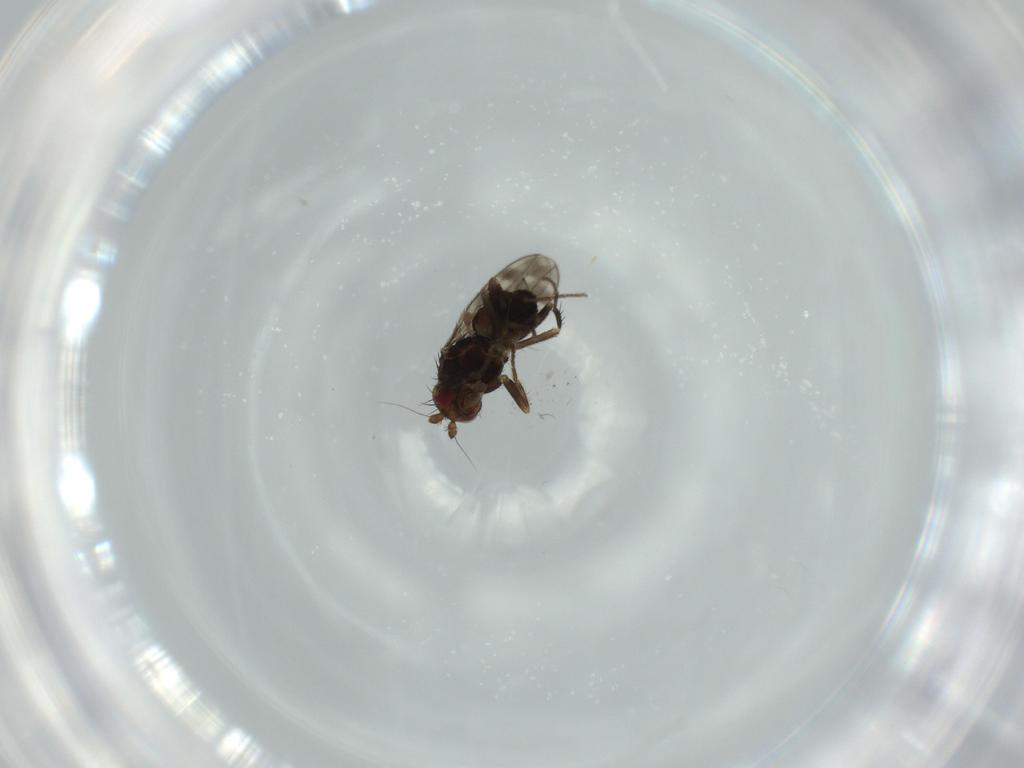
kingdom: Animalia
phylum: Arthropoda
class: Insecta
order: Diptera
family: Sphaeroceridae
